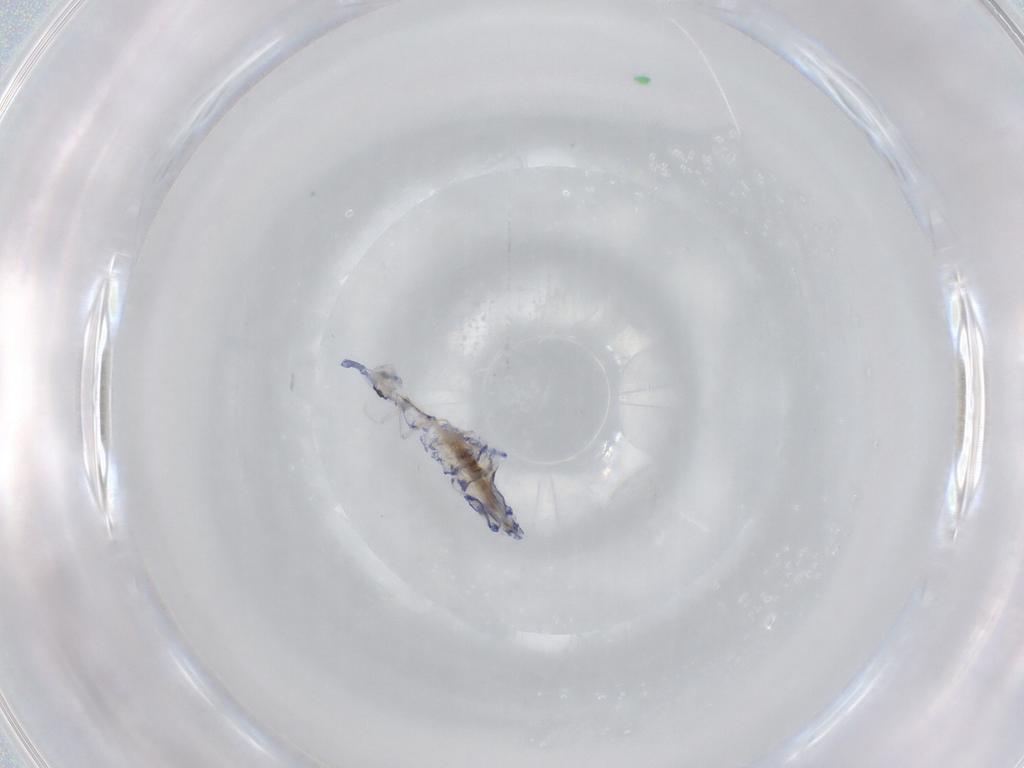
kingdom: Animalia
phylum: Arthropoda
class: Collembola
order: Entomobryomorpha
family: Entomobryidae
